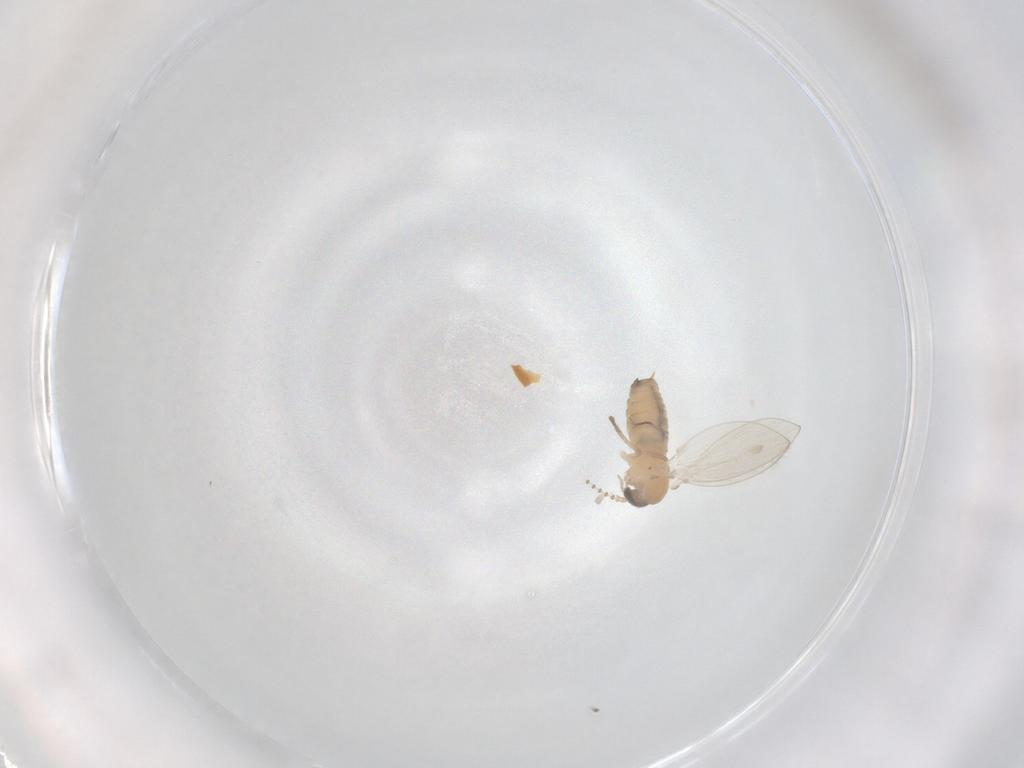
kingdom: Animalia
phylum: Arthropoda
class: Insecta
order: Diptera
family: Psychodidae
